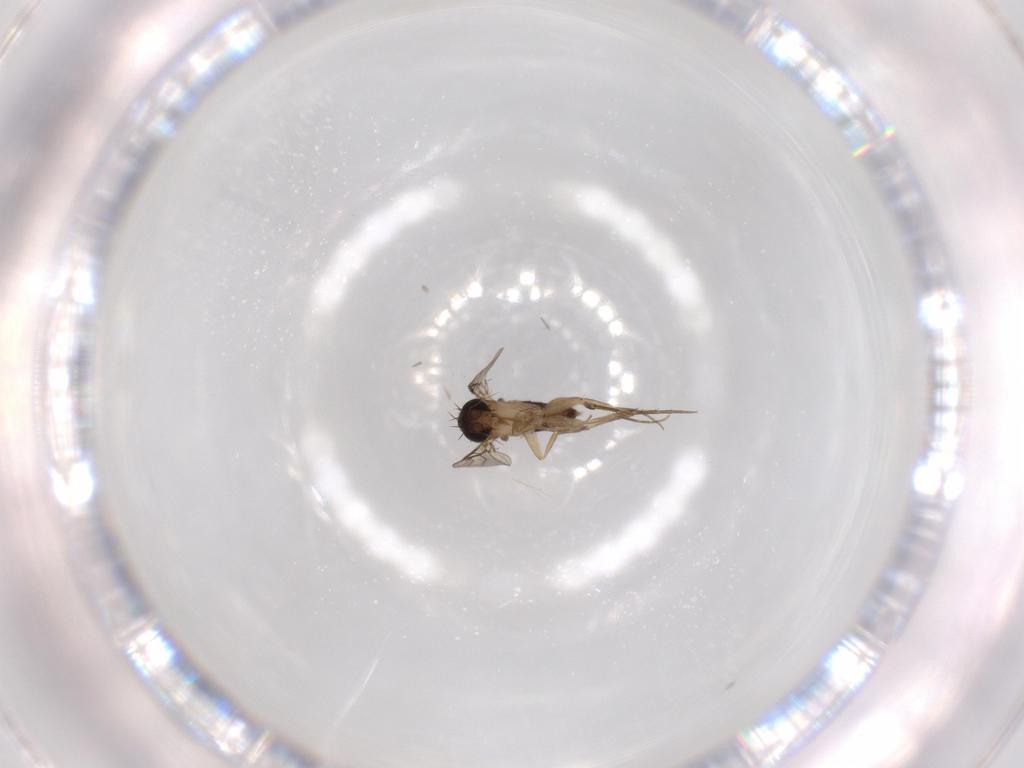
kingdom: Animalia
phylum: Arthropoda
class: Insecta
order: Diptera
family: Phoridae
